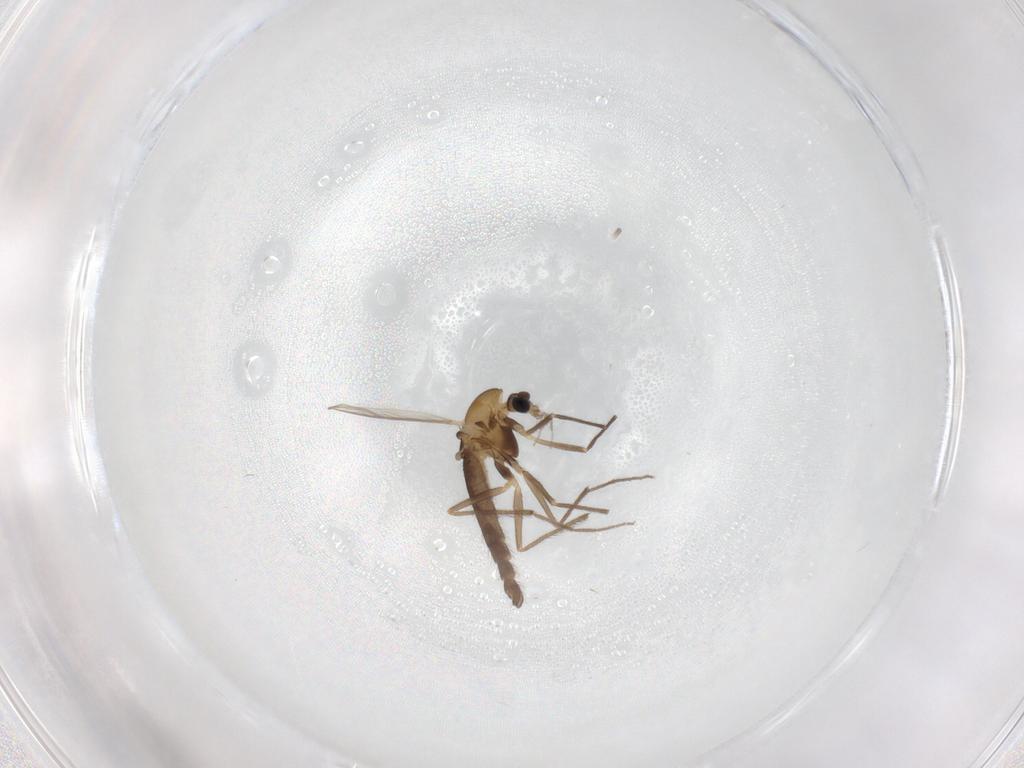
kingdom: Animalia
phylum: Arthropoda
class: Insecta
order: Diptera
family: Chironomidae
